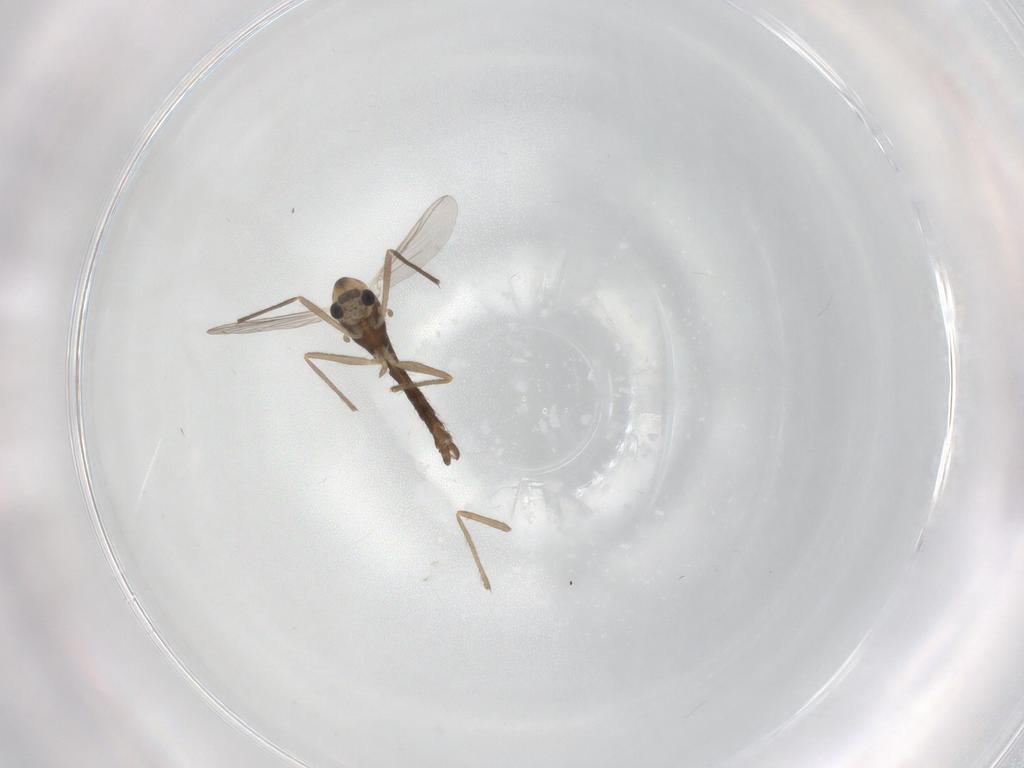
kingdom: Animalia
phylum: Arthropoda
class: Insecta
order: Diptera
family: Chironomidae
